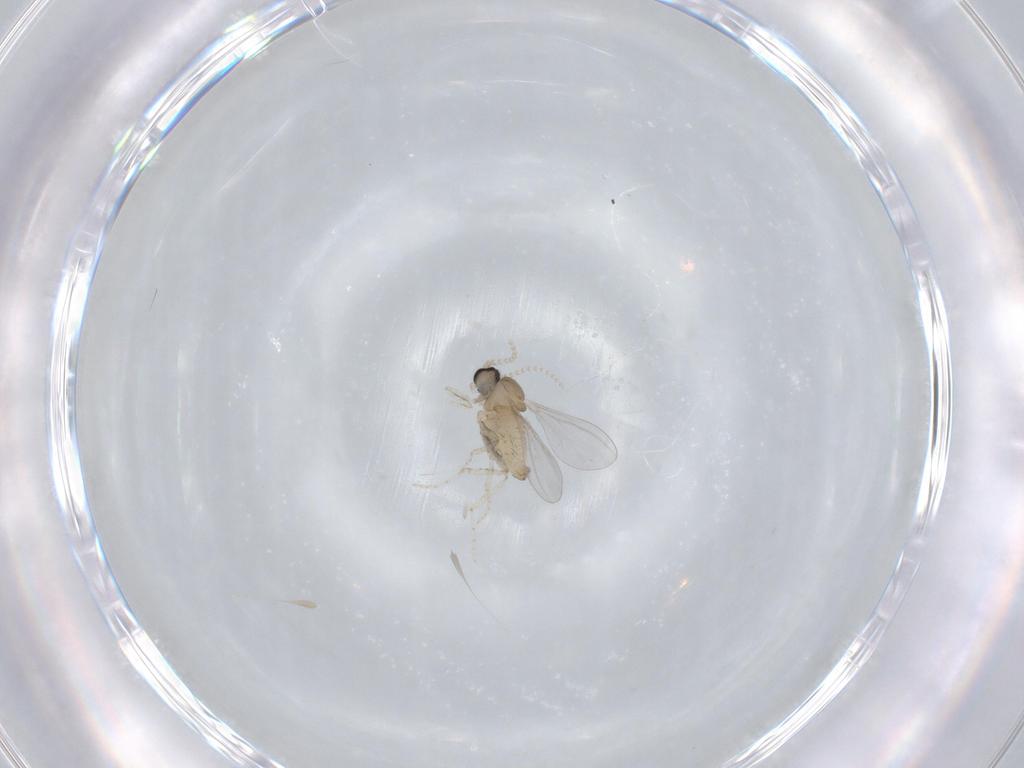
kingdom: Animalia
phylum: Arthropoda
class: Insecta
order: Diptera
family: Cecidomyiidae
